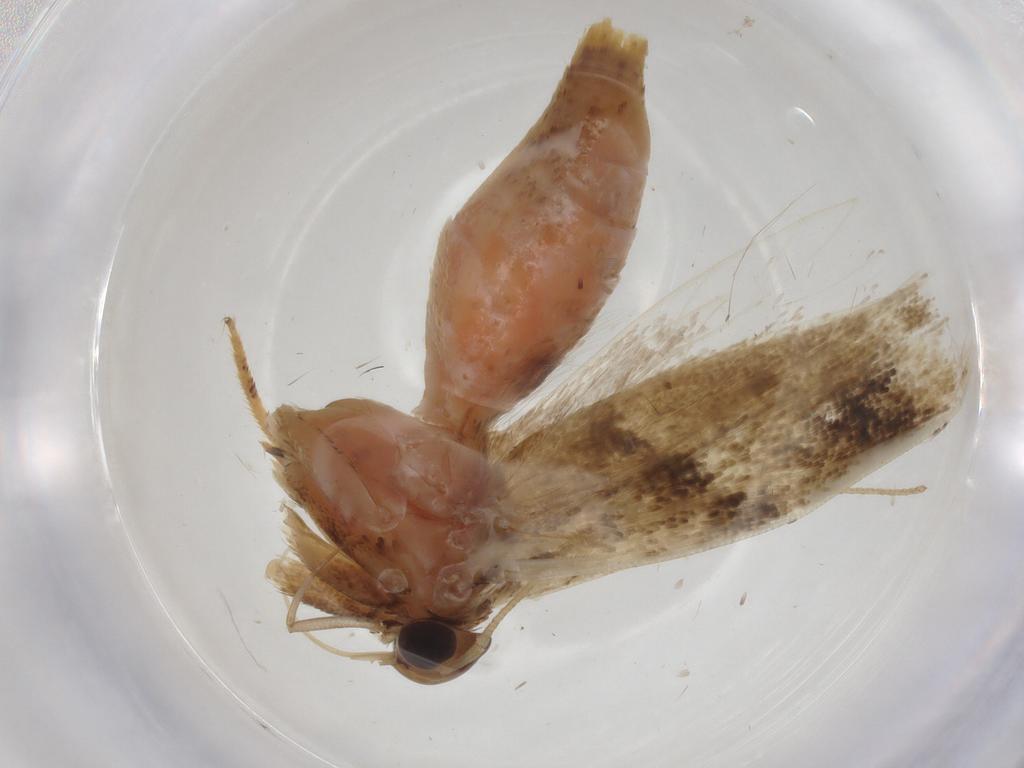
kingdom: Animalia
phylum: Arthropoda
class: Insecta
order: Lepidoptera
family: Gelechiidae
